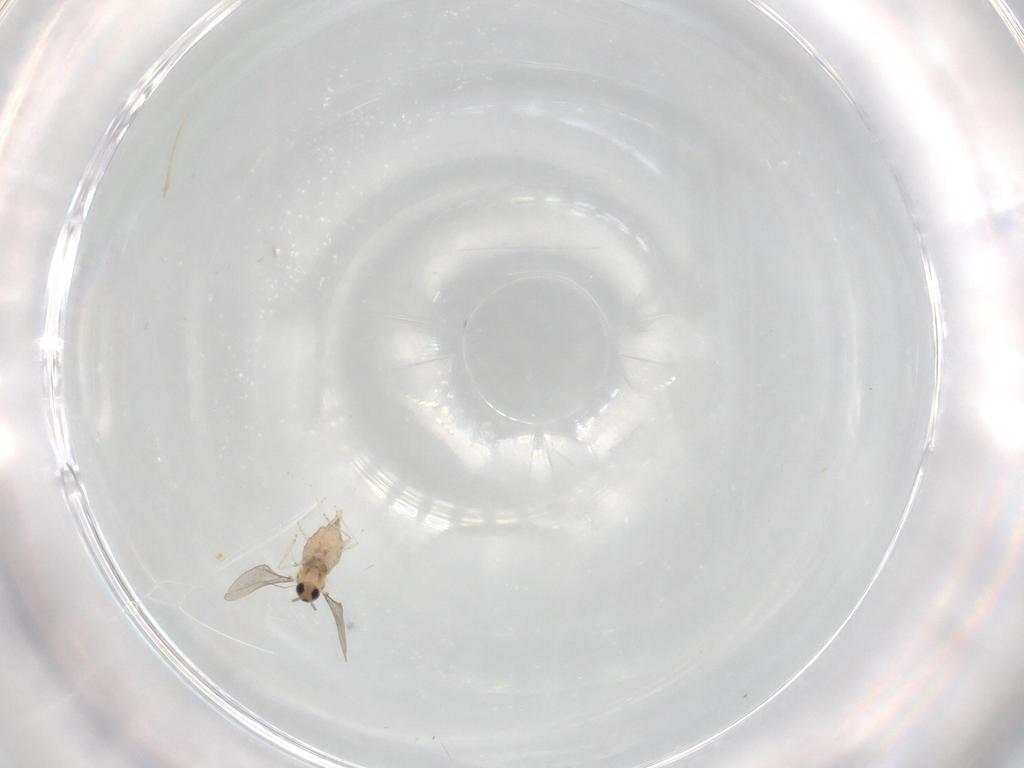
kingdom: Animalia
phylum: Arthropoda
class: Insecta
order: Diptera
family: Cecidomyiidae
